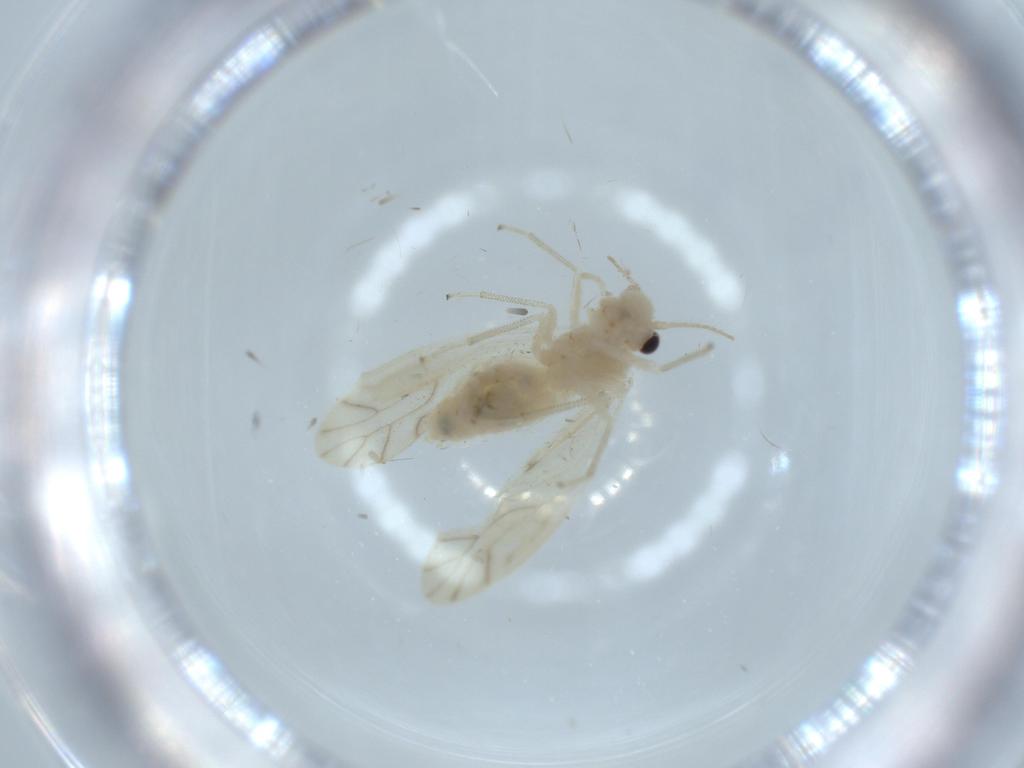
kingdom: Animalia
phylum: Arthropoda
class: Insecta
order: Psocodea
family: Caeciliusidae
